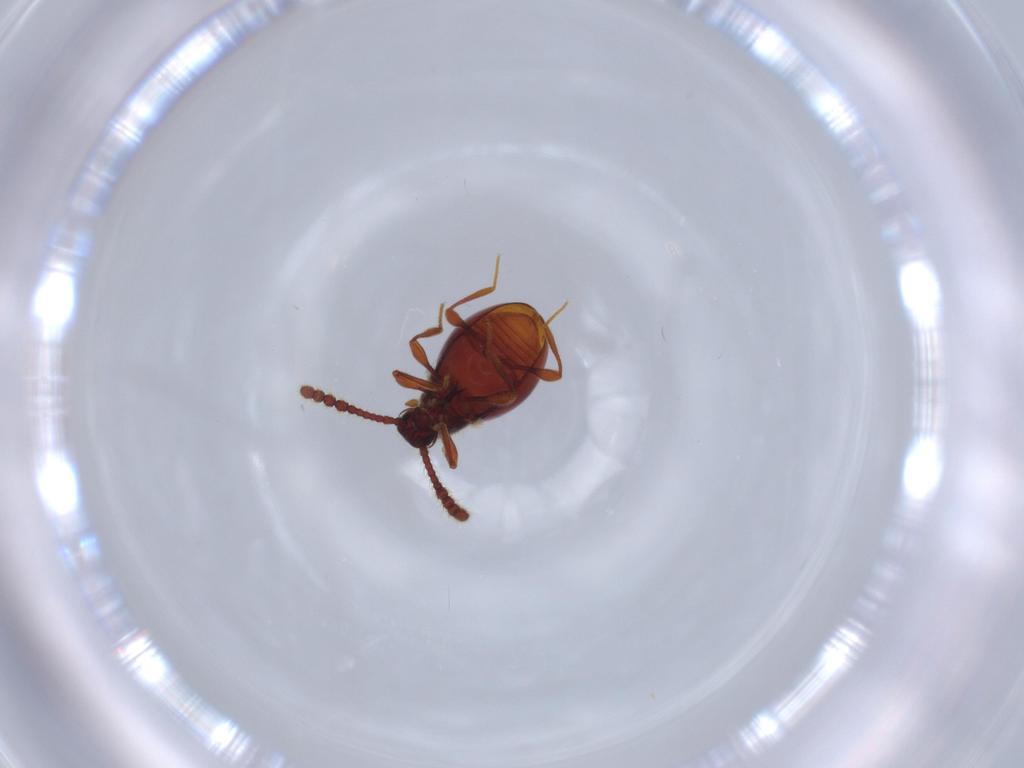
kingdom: Animalia
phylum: Arthropoda
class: Insecta
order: Coleoptera
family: Staphylinidae
